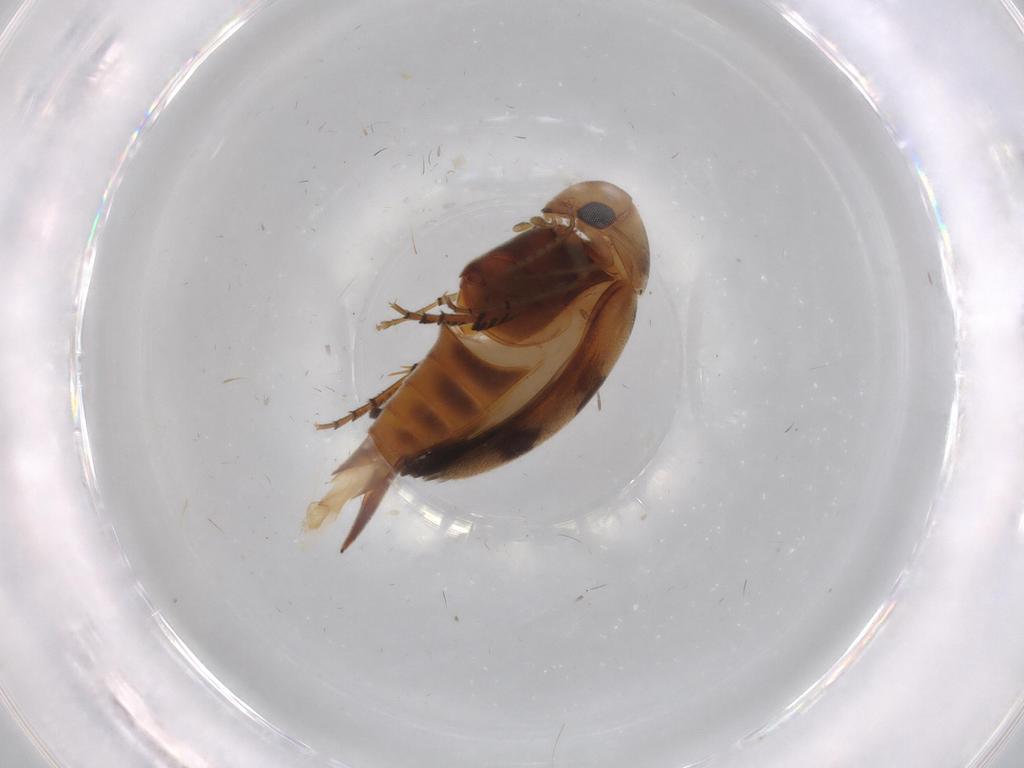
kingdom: Animalia
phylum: Arthropoda
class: Insecta
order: Coleoptera
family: Mordellidae
